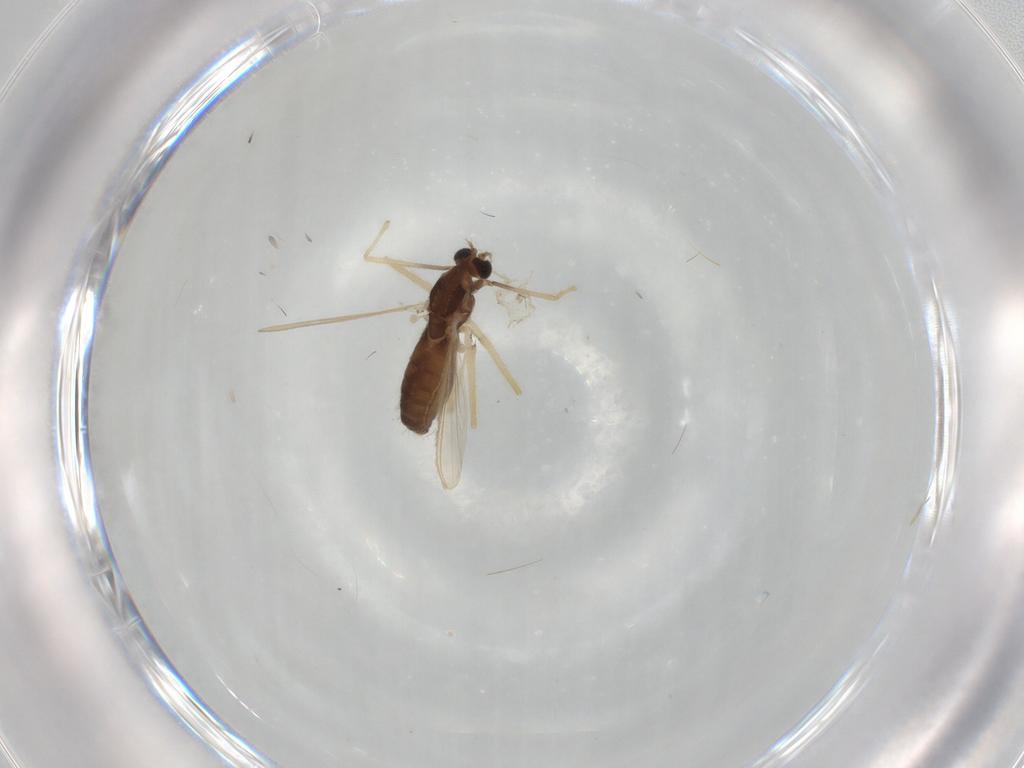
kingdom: Animalia
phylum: Arthropoda
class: Insecta
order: Diptera
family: Chironomidae
